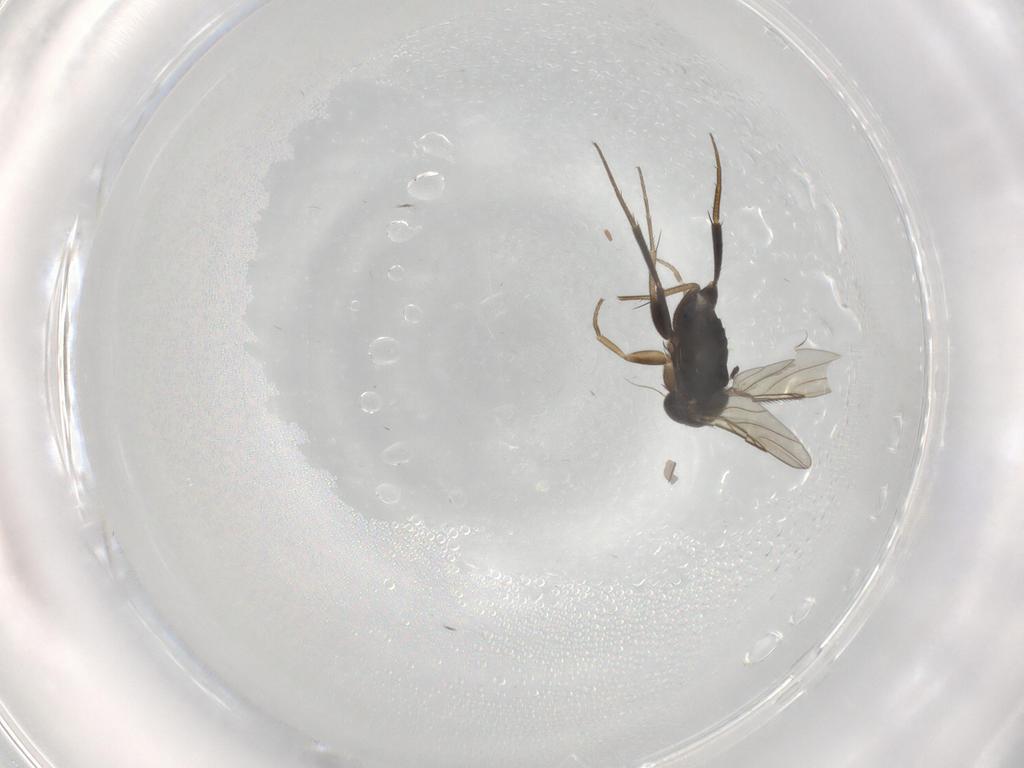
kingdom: Animalia
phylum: Arthropoda
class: Insecta
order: Diptera
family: Phoridae
